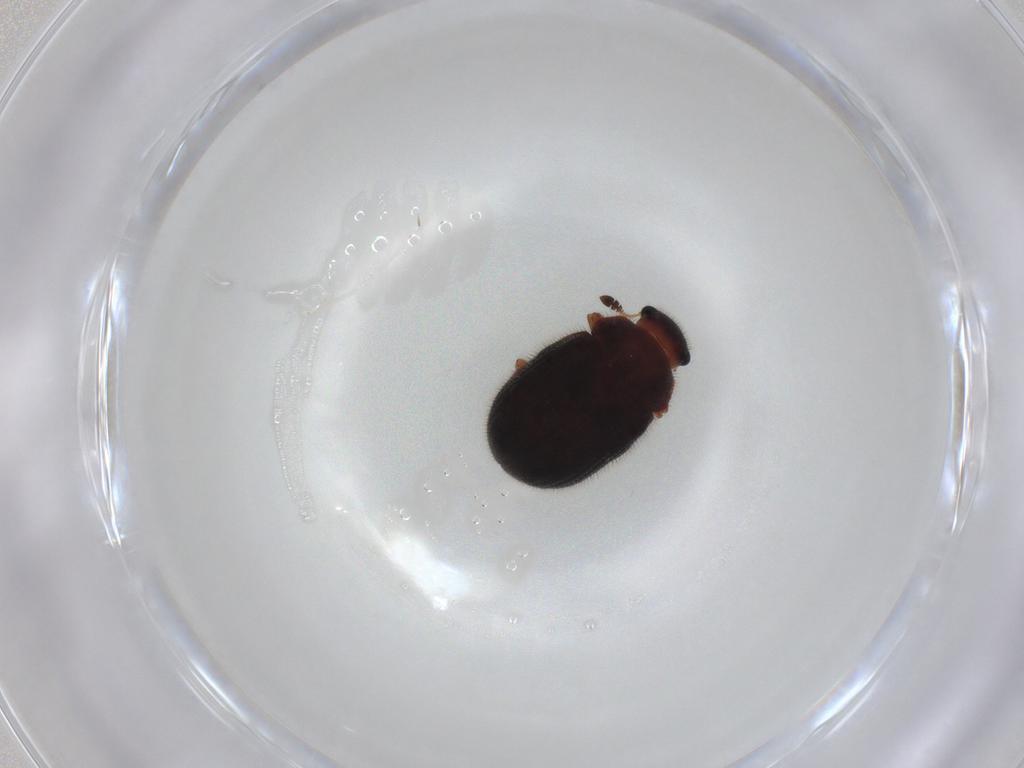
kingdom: Animalia
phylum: Arthropoda
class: Insecta
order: Coleoptera
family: Sphindidae
